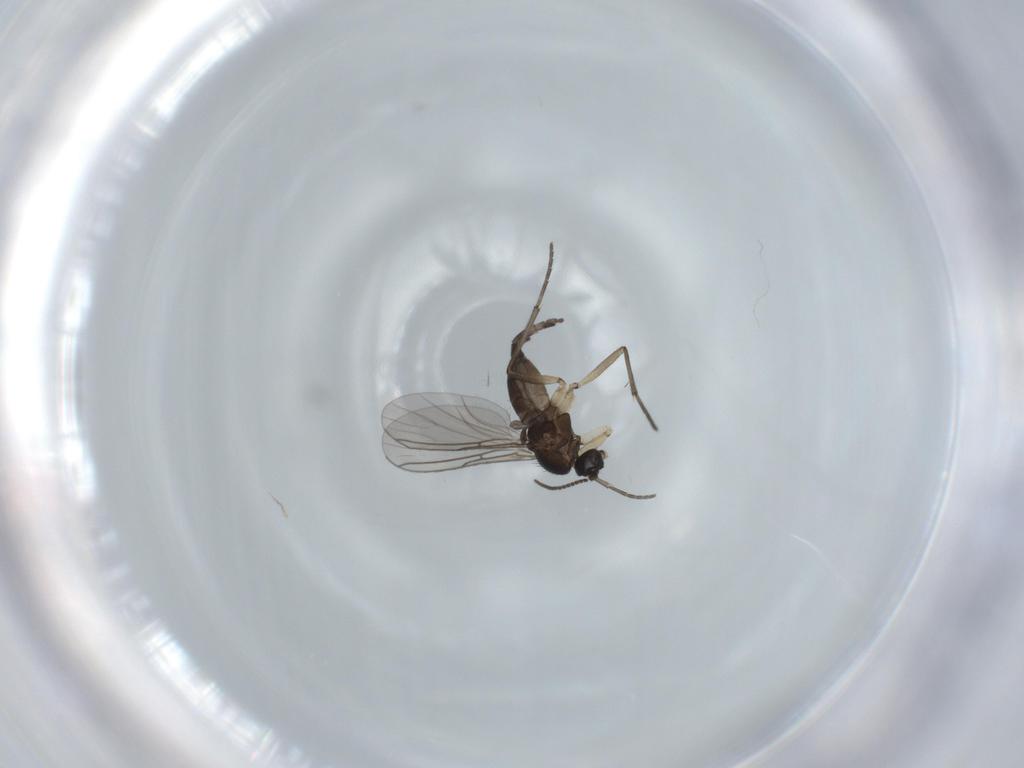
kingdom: Animalia
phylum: Arthropoda
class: Insecta
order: Diptera
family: Sciaridae
